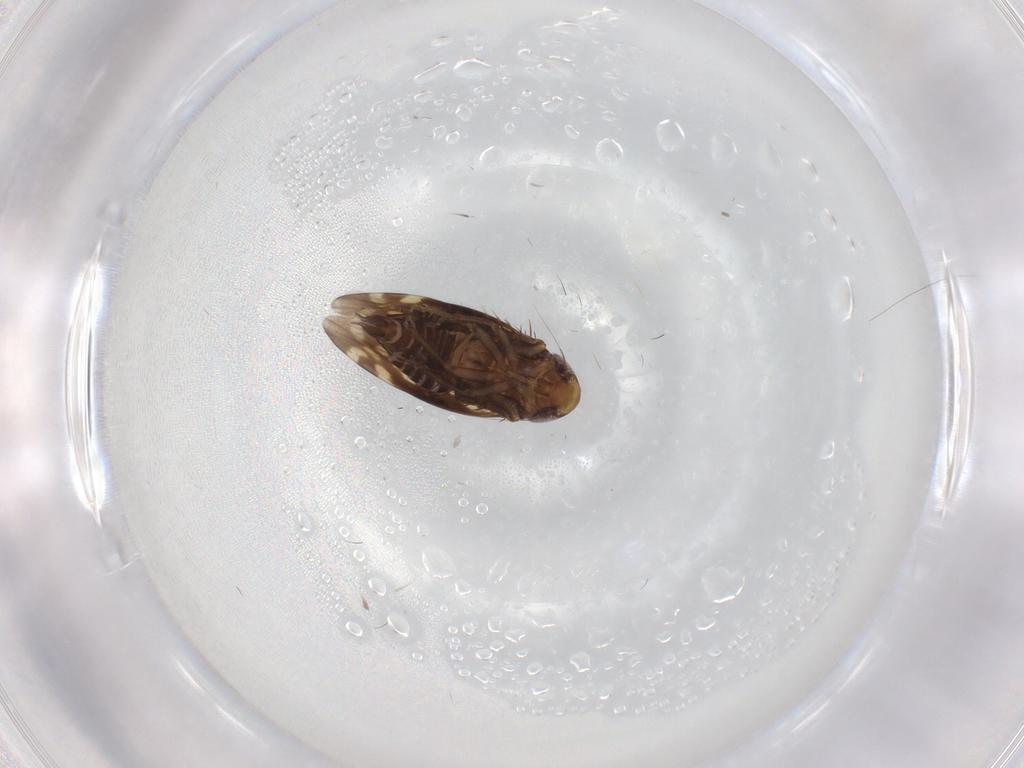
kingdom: Animalia
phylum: Arthropoda
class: Insecta
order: Hemiptera
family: Cicadellidae
